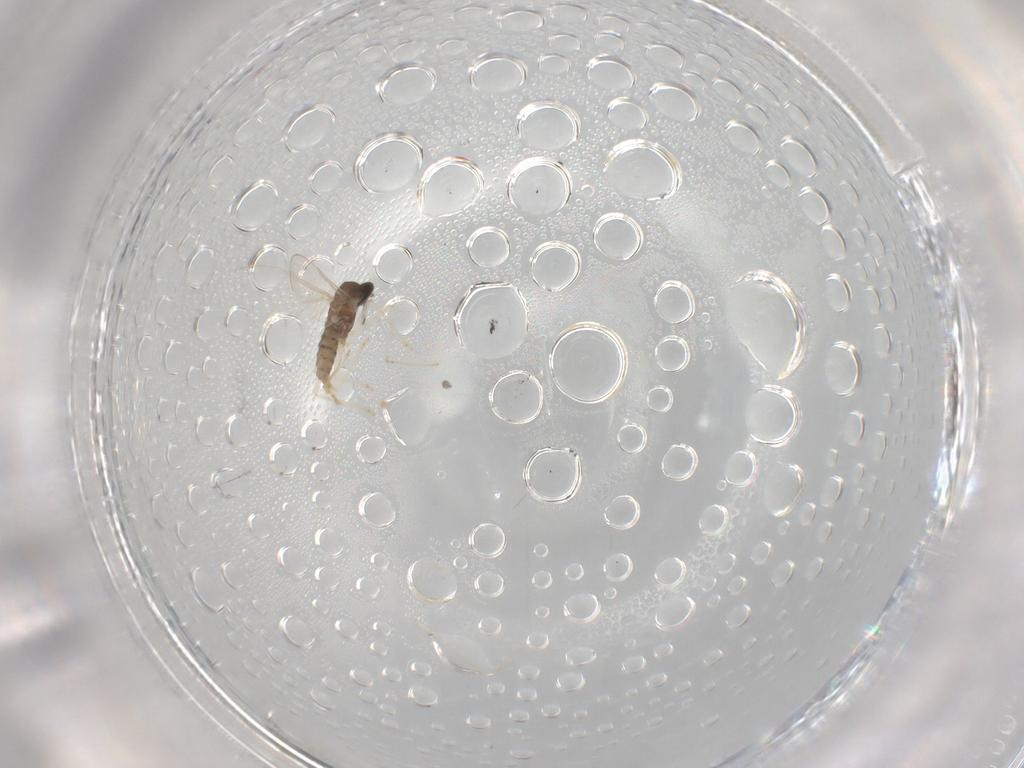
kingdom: Animalia
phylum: Arthropoda
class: Insecta
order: Diptera
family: Cecidomyiidae
